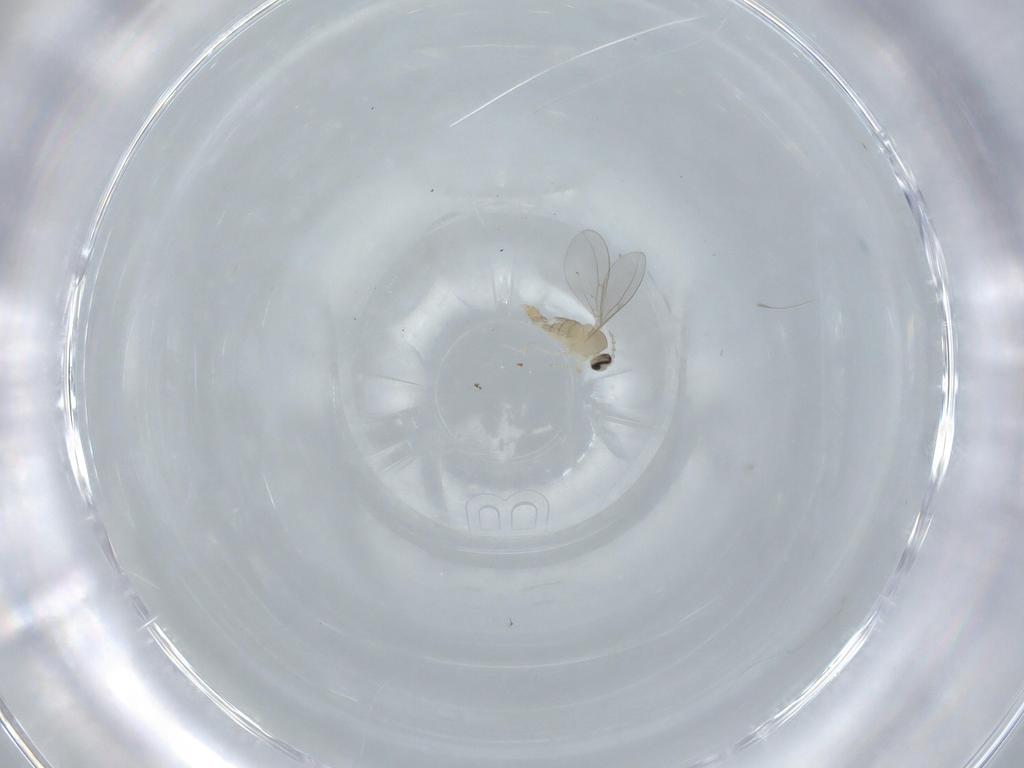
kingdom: Animalia
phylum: Arthropoda
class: Insecta
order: Diptera
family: Cecidomyiidae
